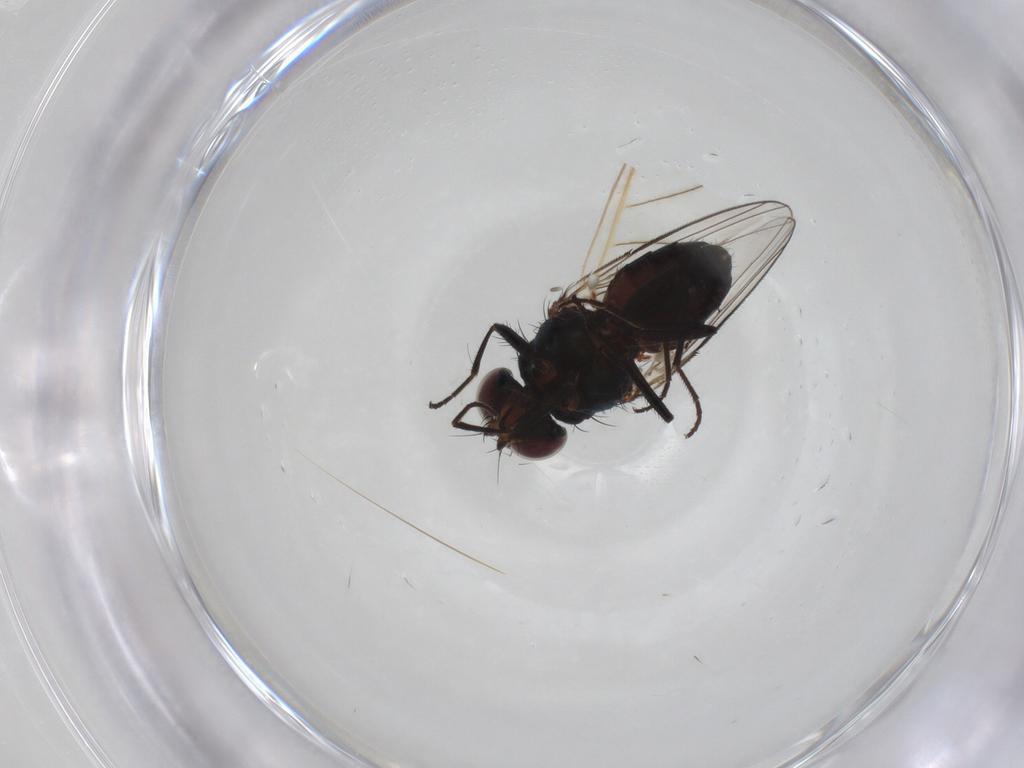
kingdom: Animalia
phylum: Arthropoda
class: Insecta
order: Diptera
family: Carnidae
